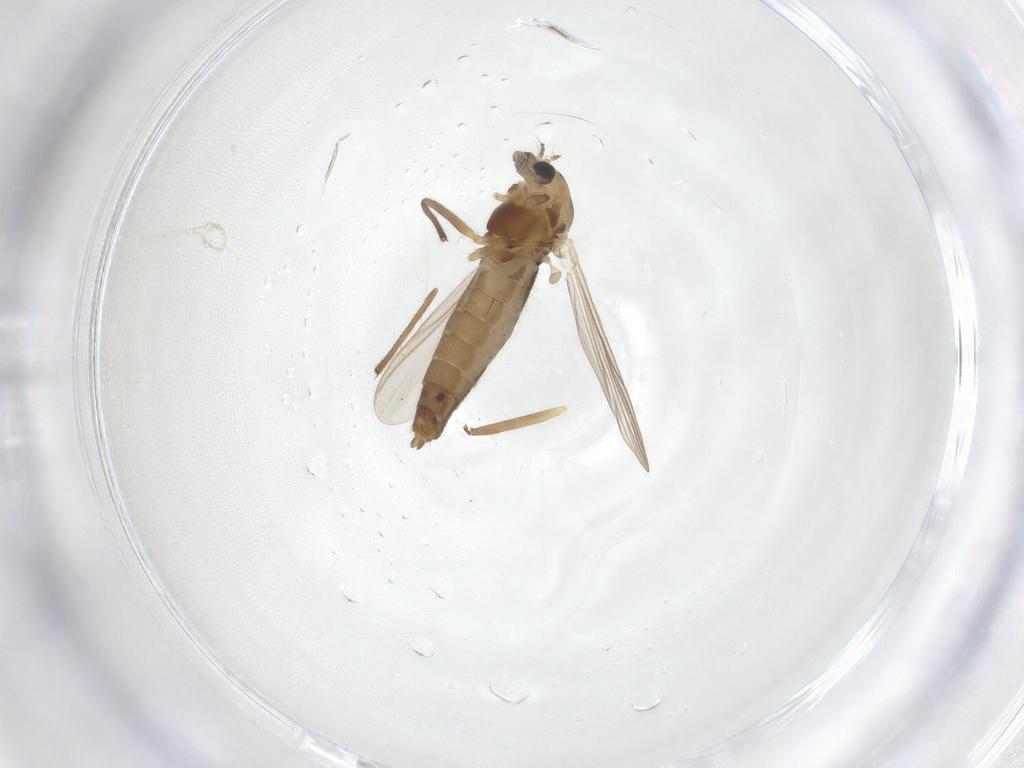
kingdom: Animalia
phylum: Arthropoda
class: Insecta
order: Diptera
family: Chironomidae
